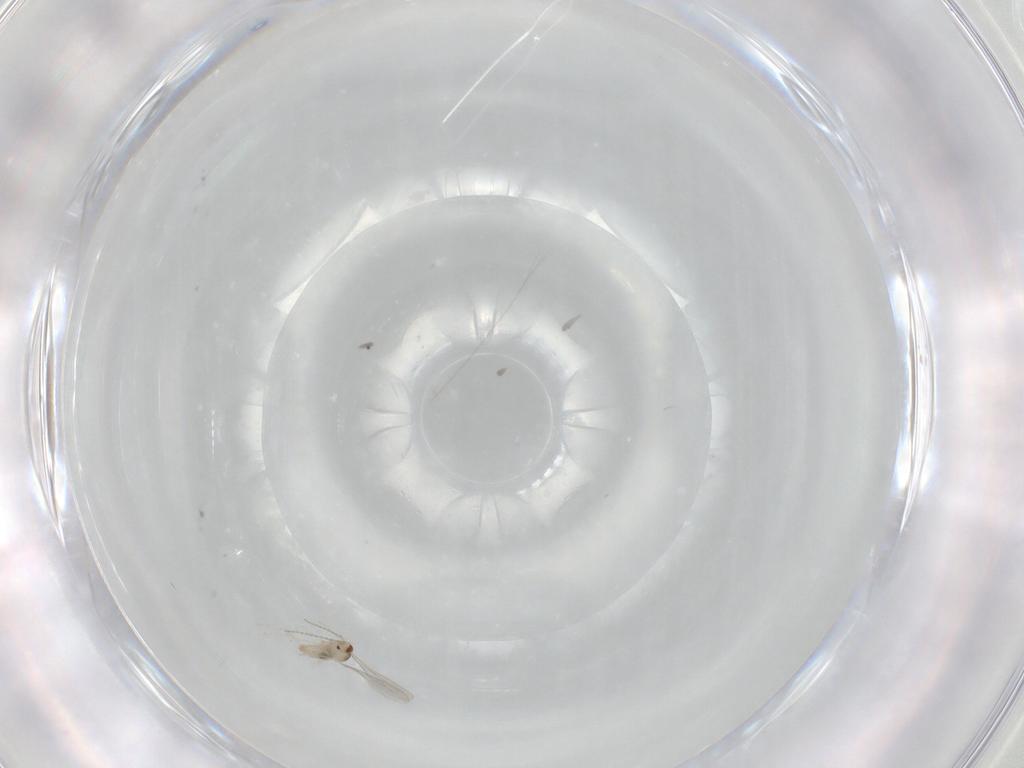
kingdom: Animalia
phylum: Arthropoda
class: Insecta
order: Diptera
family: Cecidomyiidae
